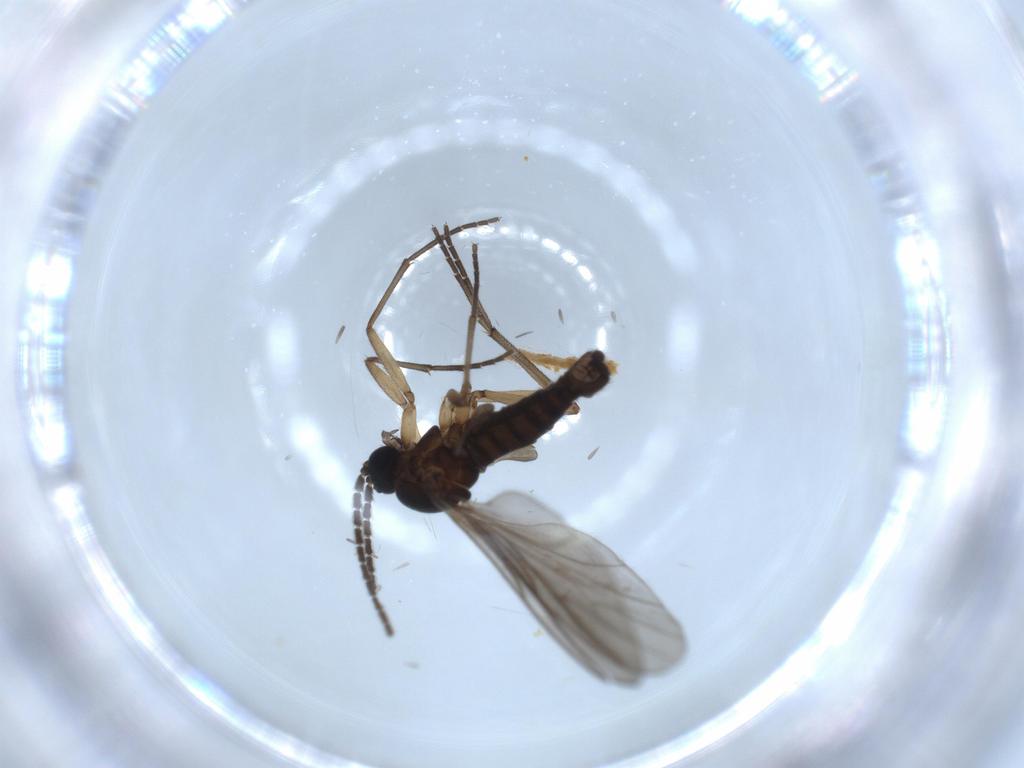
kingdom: Animalia
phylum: Arthropoda
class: Insecta
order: Diptera
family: Sciaridae
